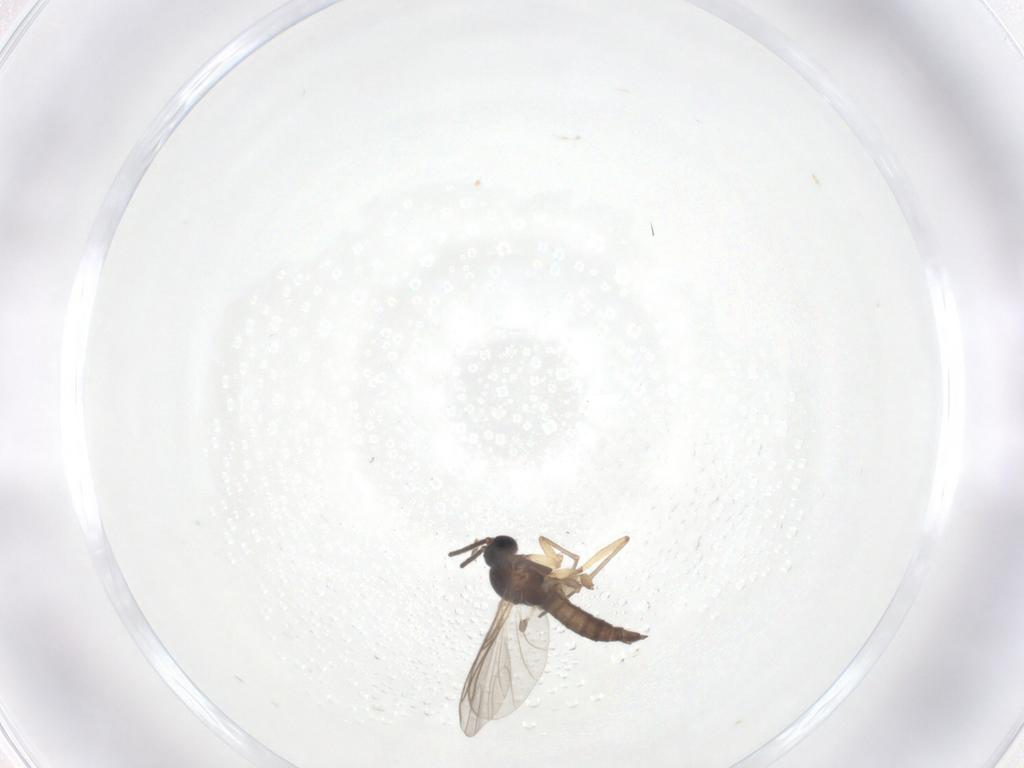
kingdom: Animalia
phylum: Arthropoda
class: Insecta
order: Diptera
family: Sciaridae
